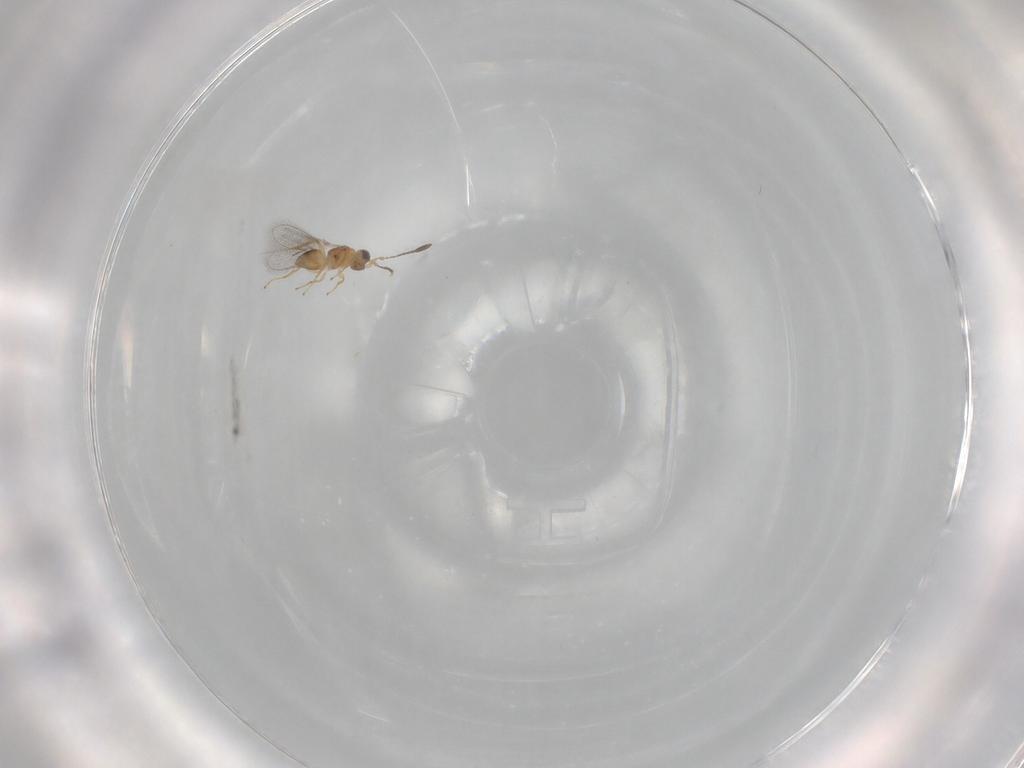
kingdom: Animalia
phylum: Arthropoda
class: Insecta
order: Hymenoptera
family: Mymaridae
